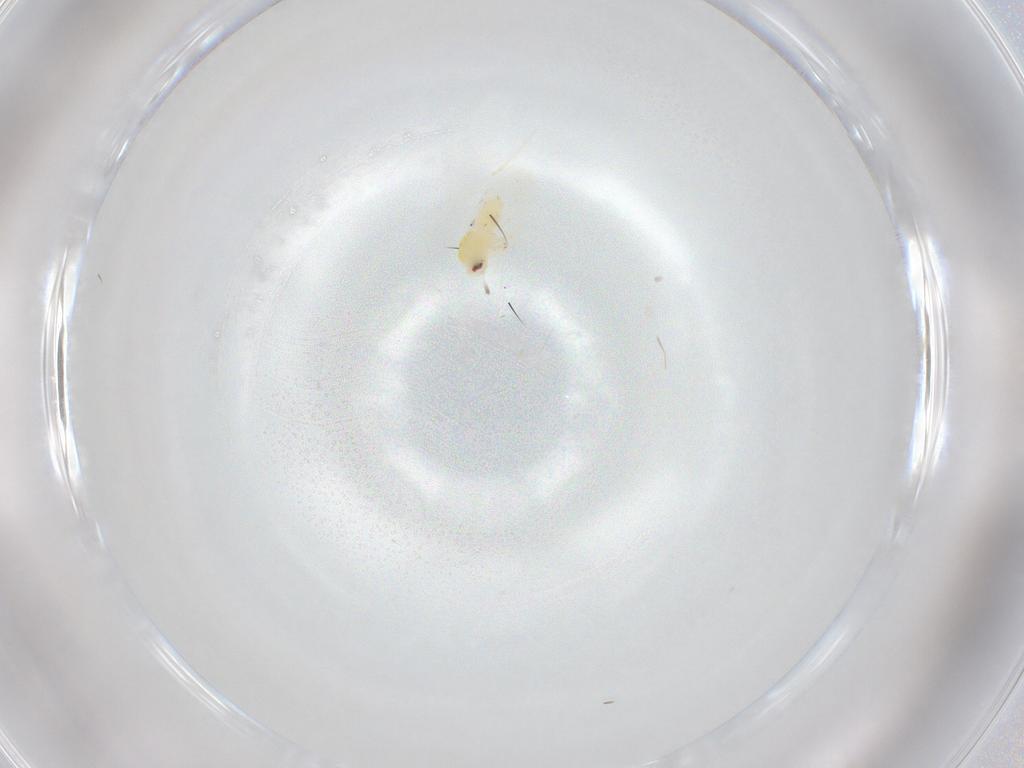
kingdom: Animalia
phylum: Arthropoda
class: Insecta
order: Hemiptera
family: Aleyrodidae
